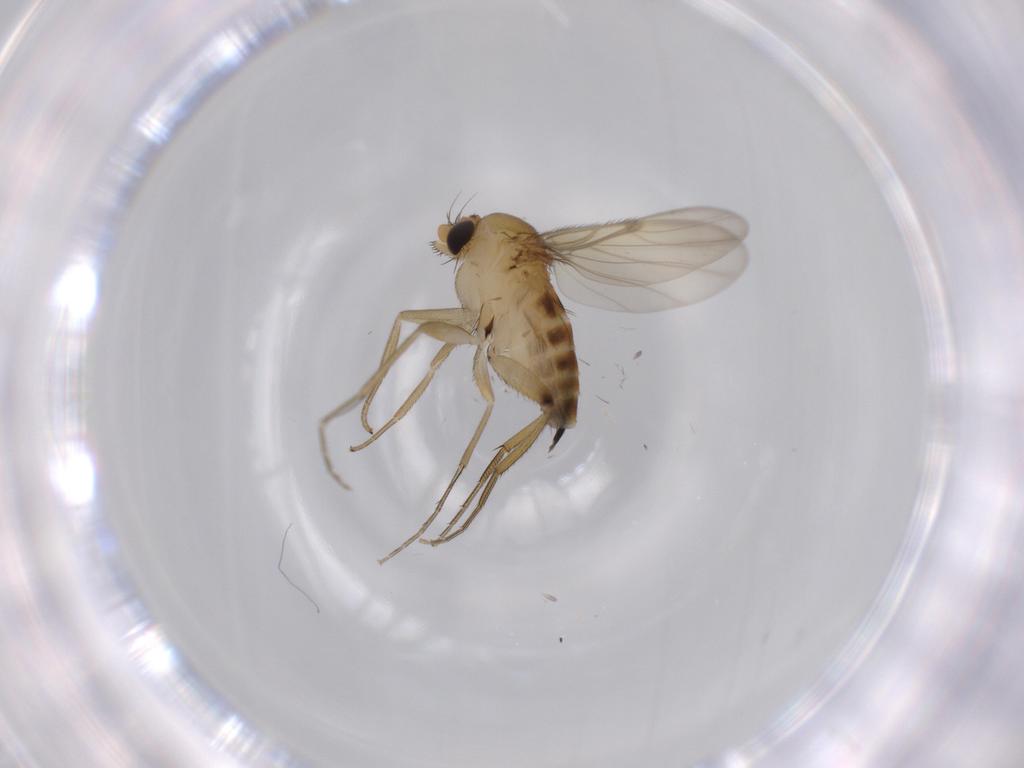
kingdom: Animalia
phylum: Arthropoda
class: Insecta
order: Diptera
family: Phoridae
